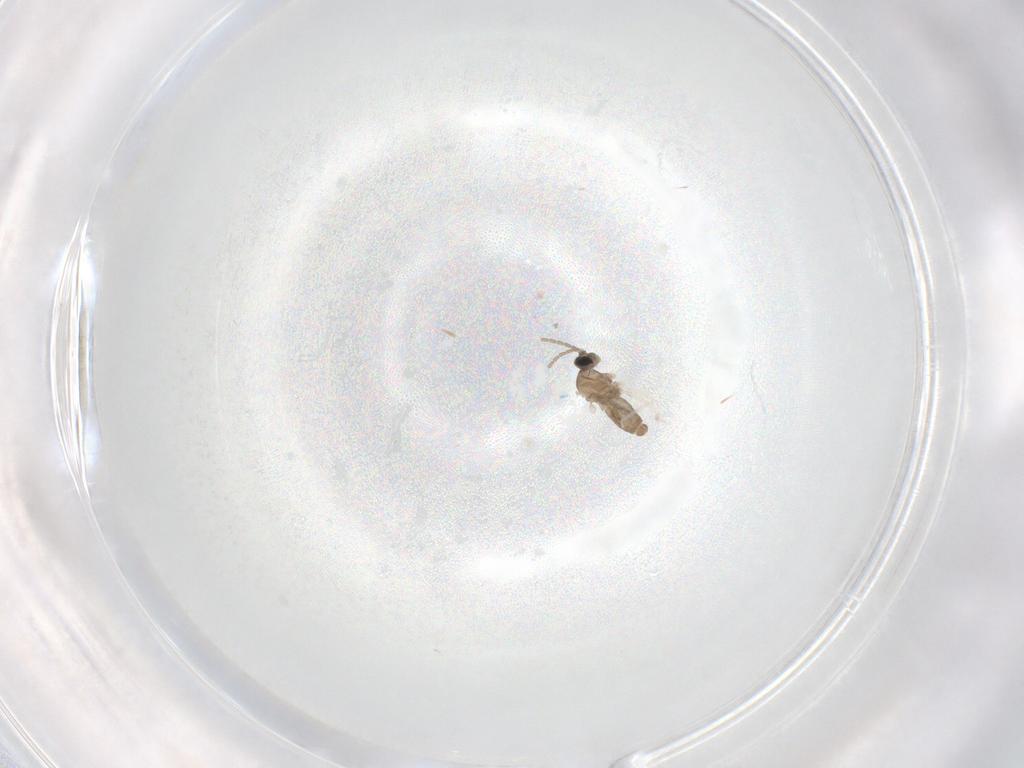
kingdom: Animalia
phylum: Arthropoda
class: Insecta
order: Diptera
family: Cecidomyiidae
